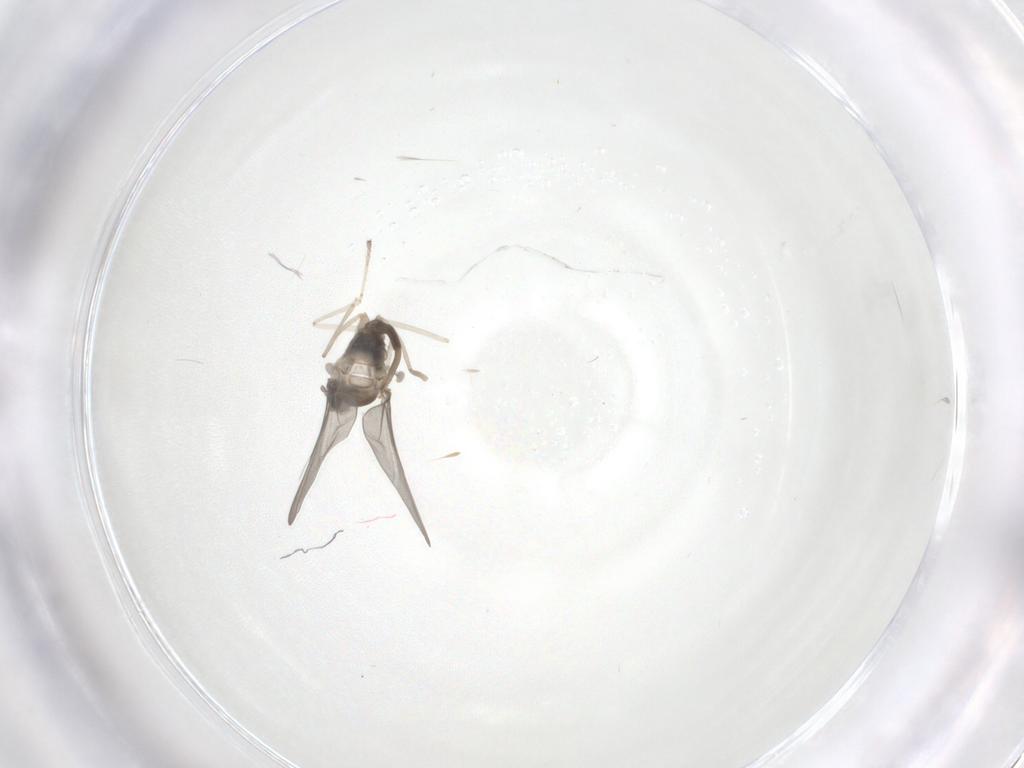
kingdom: Animalia
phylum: Arthropoda
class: Insecta
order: Diptera
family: Cecidomyiidae
